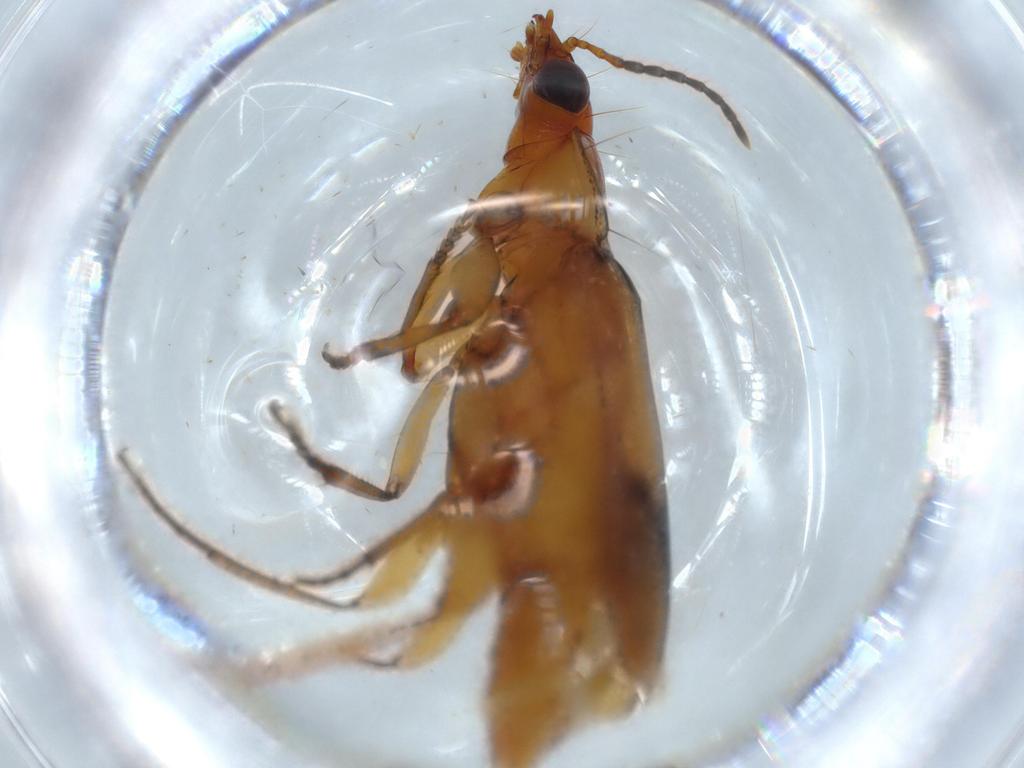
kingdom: Animalia
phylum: Arthropoda
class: Insecta
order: Coleoptera
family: Carabidae
